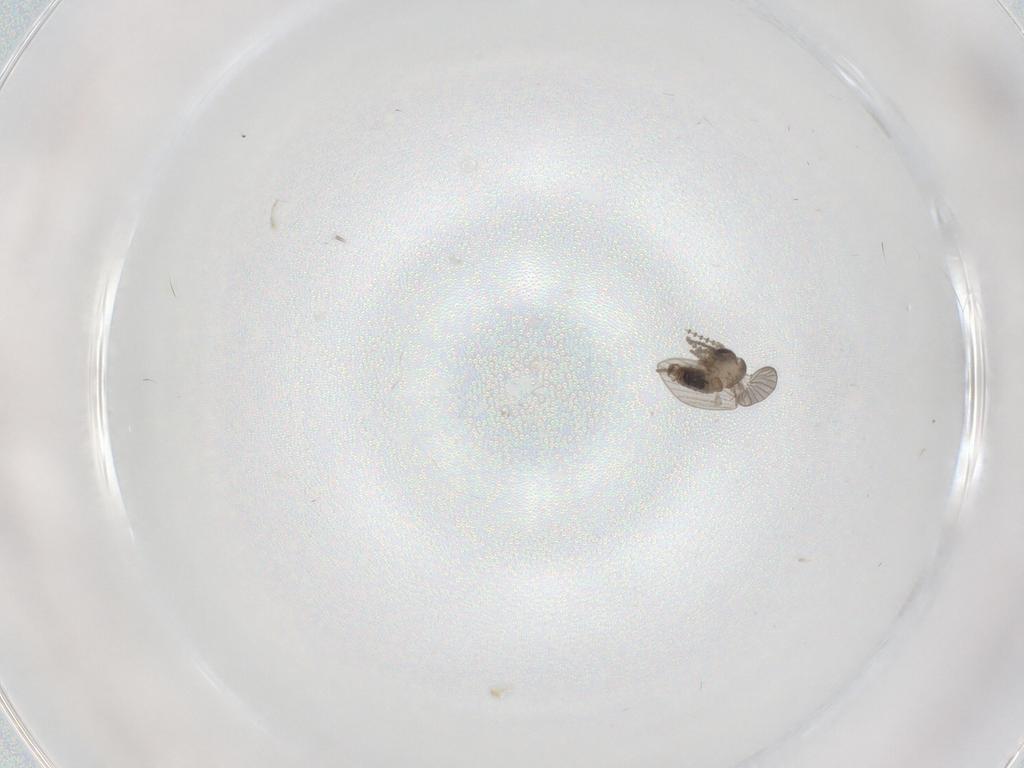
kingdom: Animalia
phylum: Arthropoda
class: Insecta
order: Diptera
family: Psychodidae
